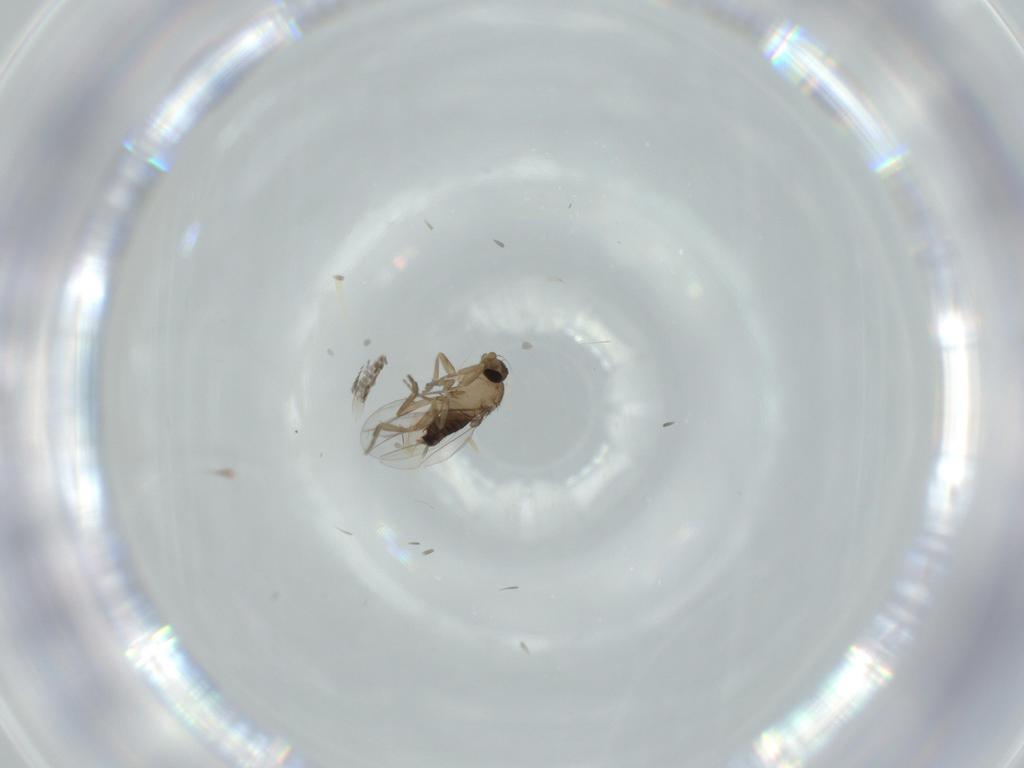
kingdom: Animalia
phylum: Arthropoda
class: Insecta
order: Diptera
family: Phoridae
